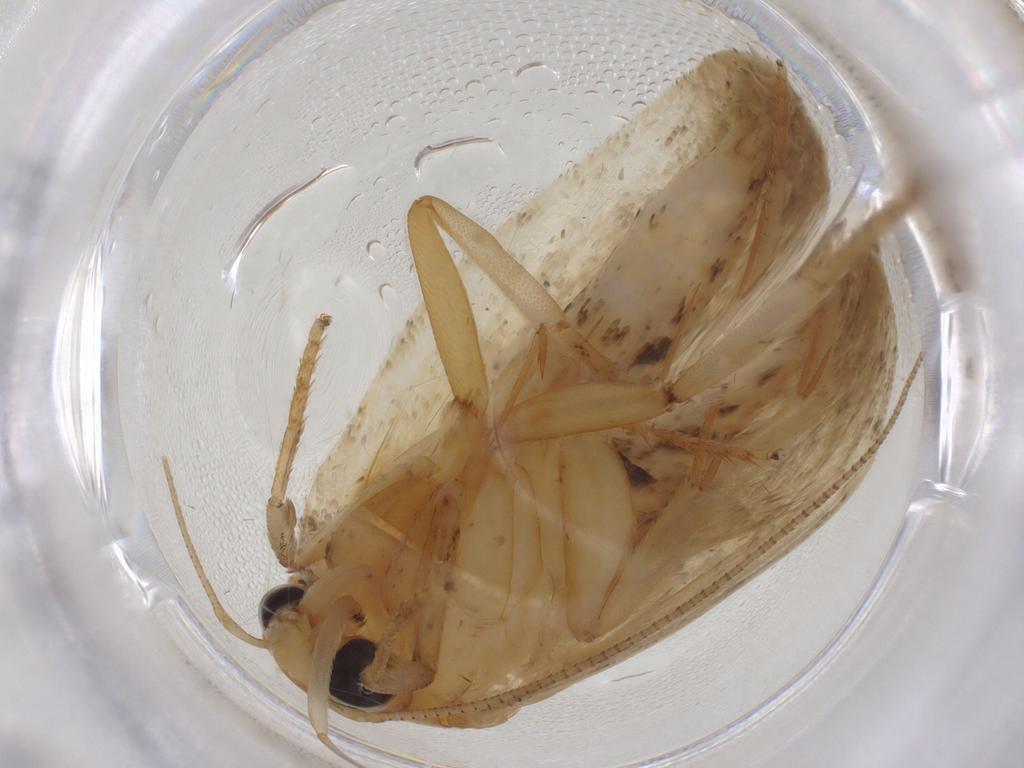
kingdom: Animalia
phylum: Arthropoda
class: Insecta
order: Lepidoptera
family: Depressariidae
